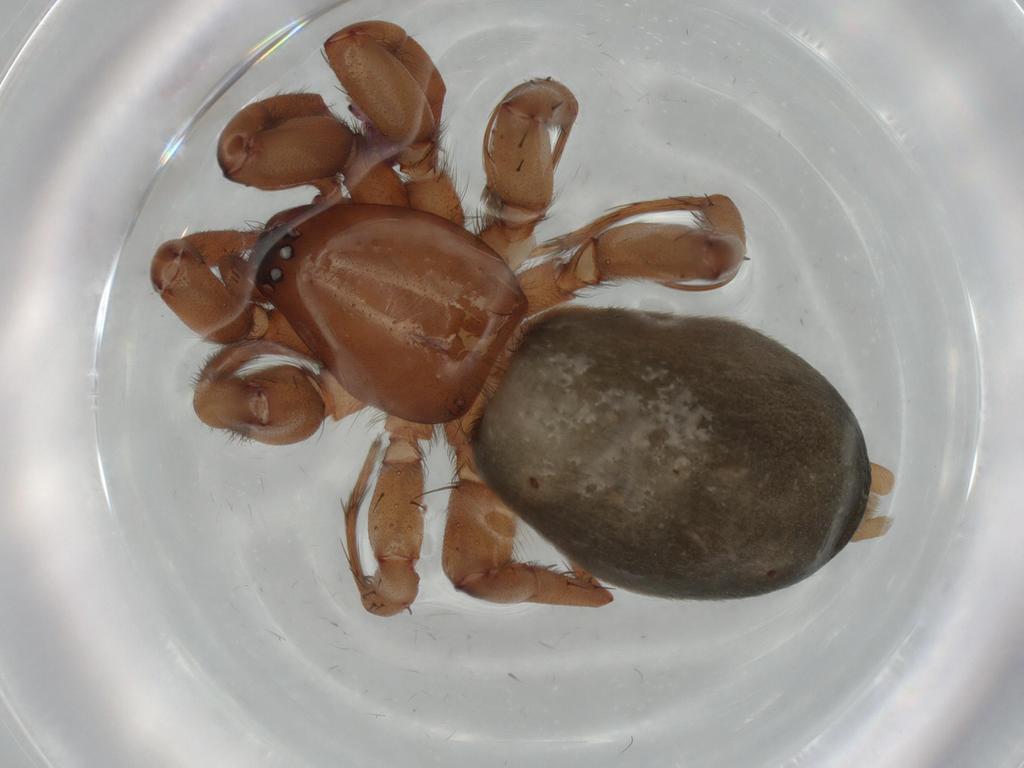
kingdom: Animalia
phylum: Arthropoda
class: Arachnida
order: Araneae
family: Gnaphosidae
